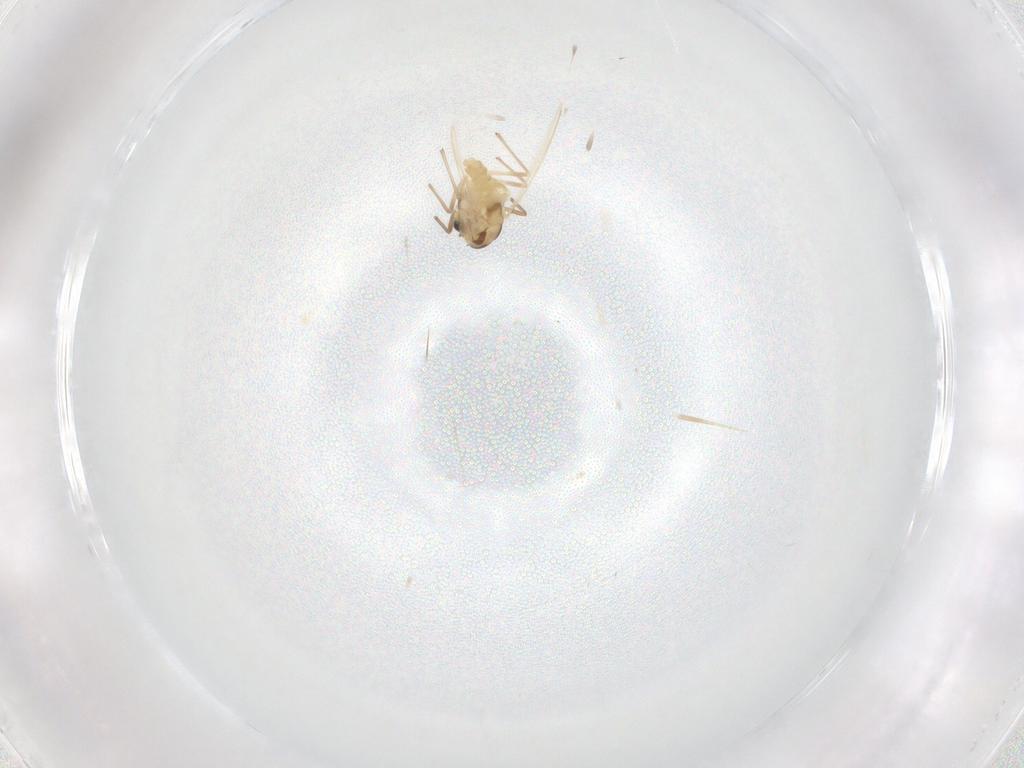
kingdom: Animalia
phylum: Arthropoda
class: Insecta
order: Diptera
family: Chironomidae
